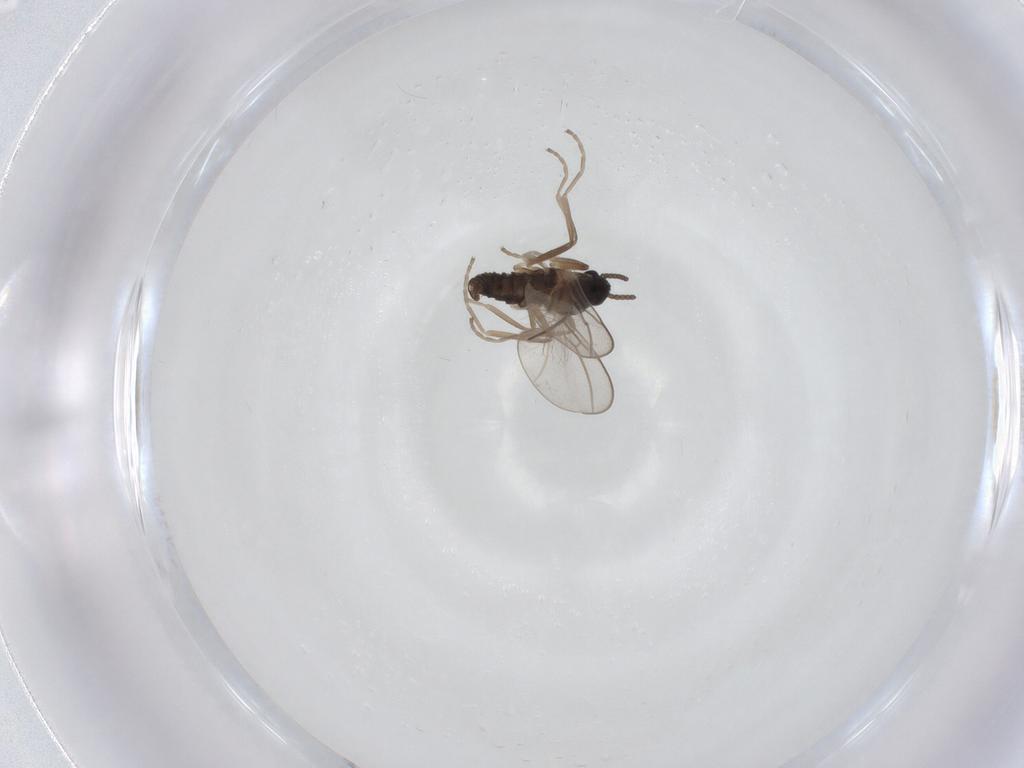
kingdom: Animalia
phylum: Arthropoda
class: Insecta
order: Diptera
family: Cecidomyiidae
